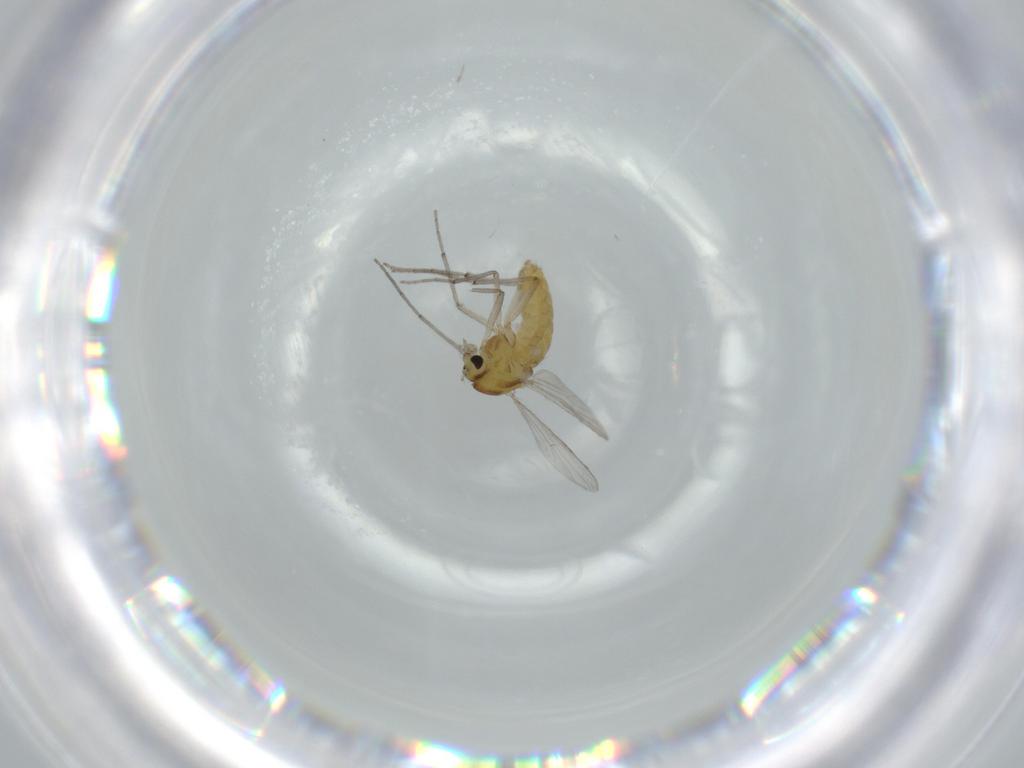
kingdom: Animalia
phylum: Arthropoda
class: Insecta
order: Diptera
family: Chironomidae
